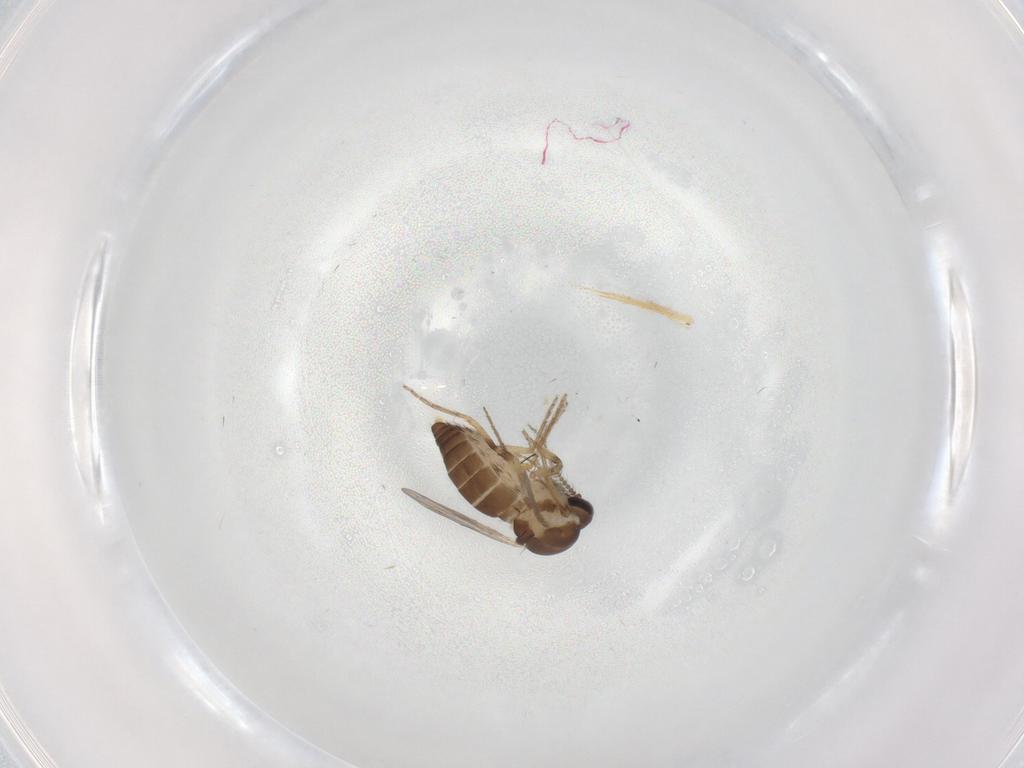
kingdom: Animalia
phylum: Arthropoda
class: Insecta
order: Diptera
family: Ceratopogonidae
